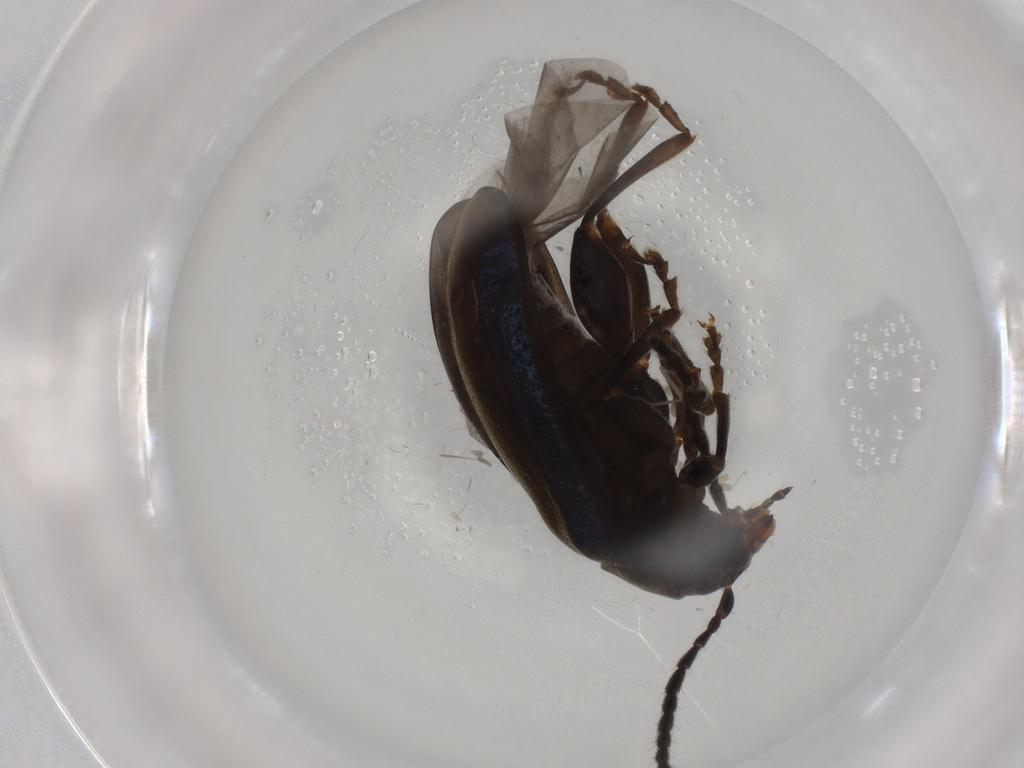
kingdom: Animalia
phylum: Arthropoda
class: Insecta
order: Coleoptera
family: Chrysomelidae
